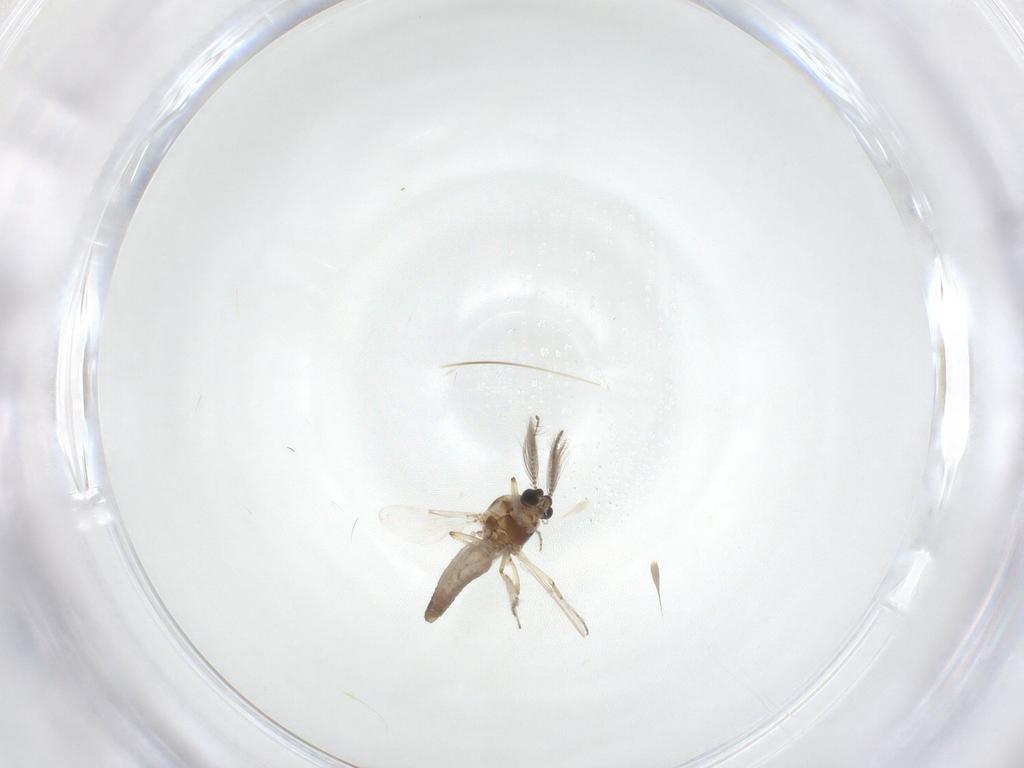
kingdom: Animalia
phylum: Arthropoda
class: Insecta
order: Diptera
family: Ceratopogonidae
